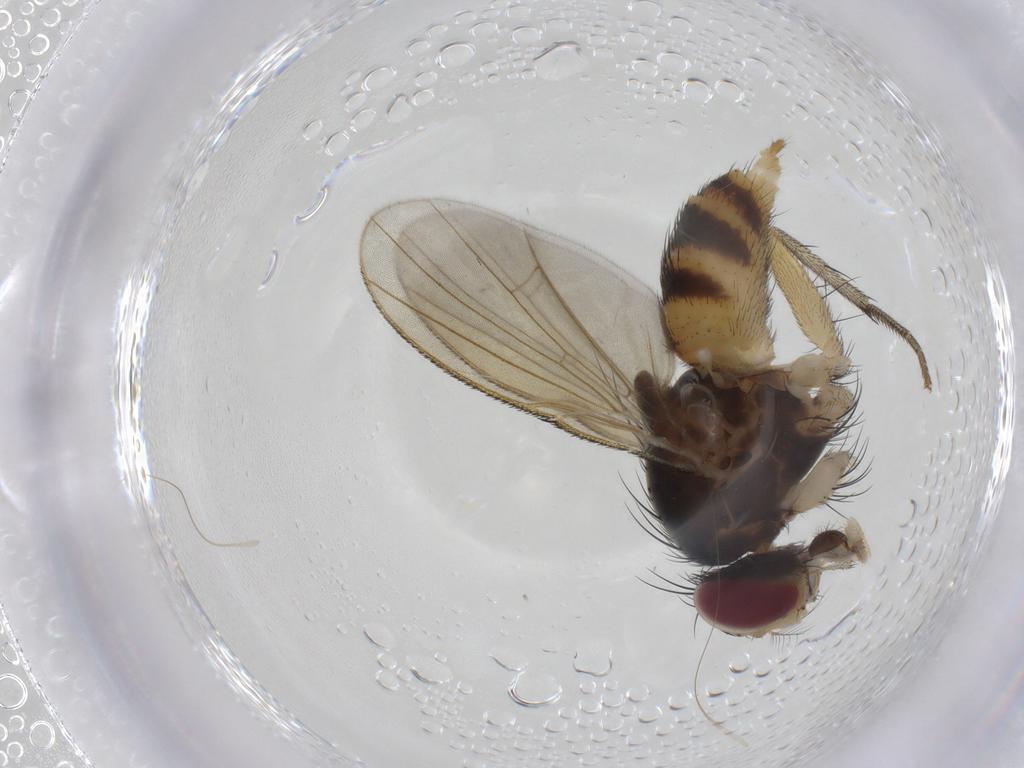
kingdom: Animalia
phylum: Arthropoda
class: Insecta
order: Diptera
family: Muscidae
